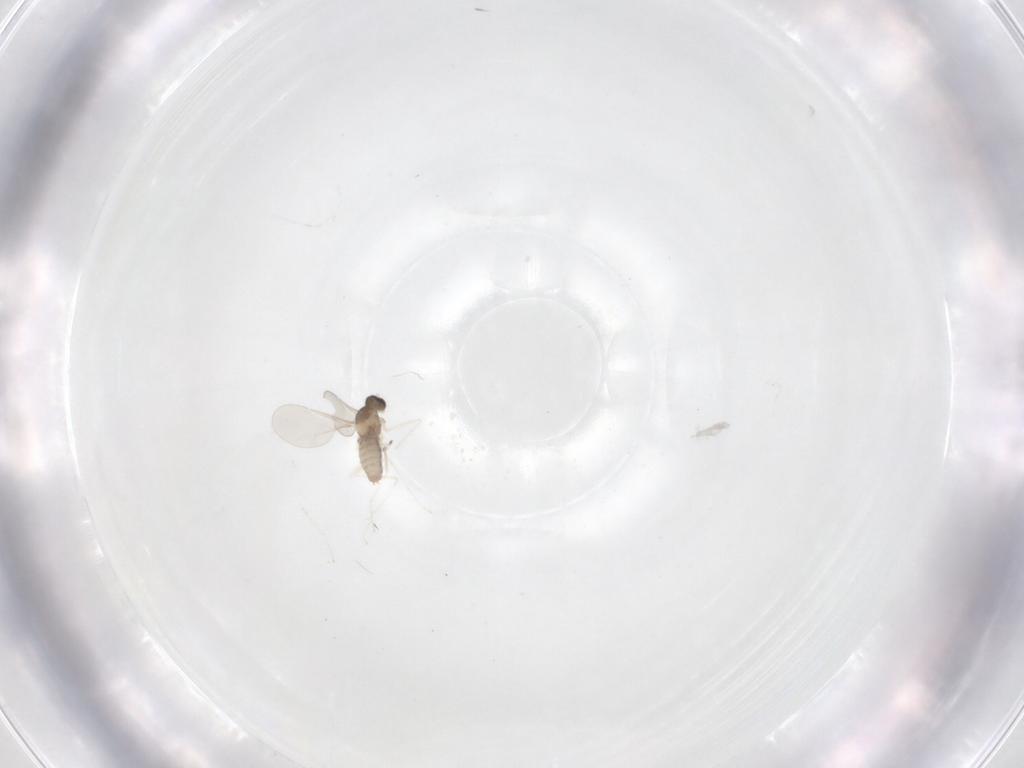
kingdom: Animalia
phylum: Arthropoda
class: Insecta
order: Diptera
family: Cecidomyiidae
